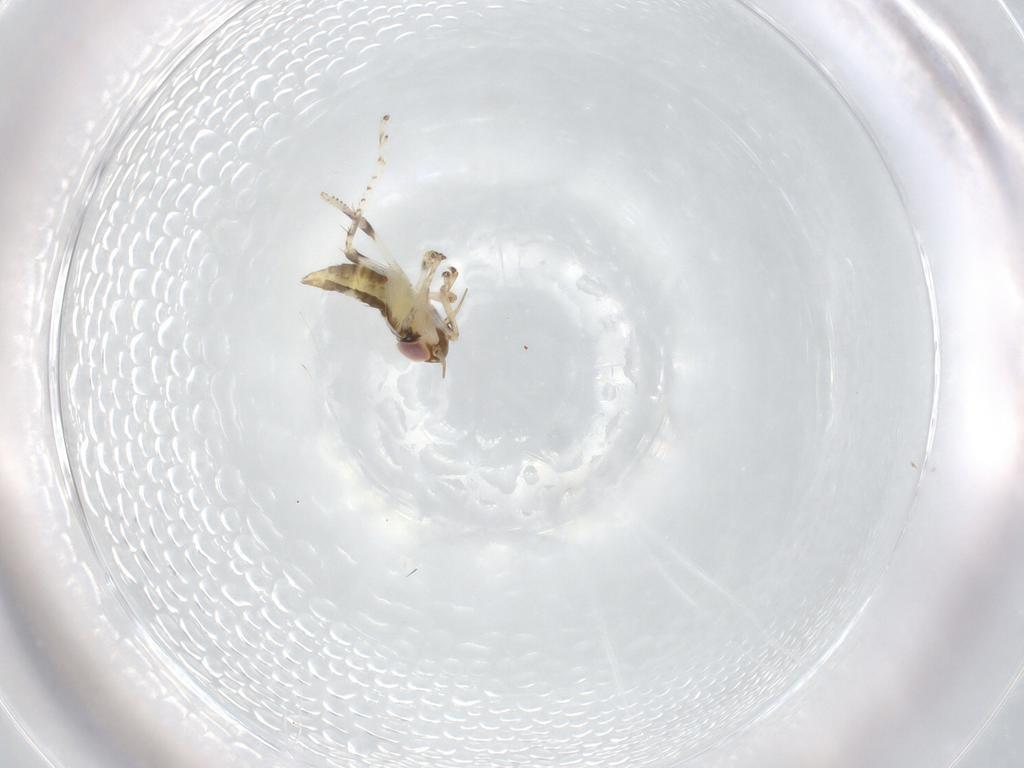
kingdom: Animalia
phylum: Arthropoda
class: Insecta
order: Hemiptera
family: Cicadellidae
